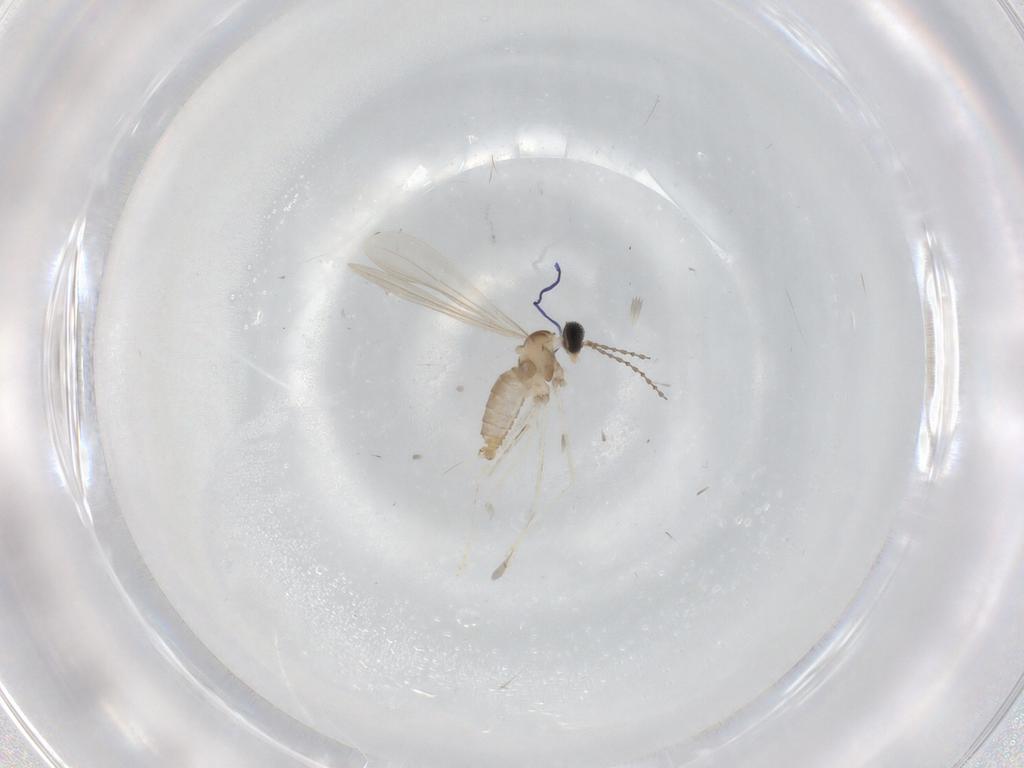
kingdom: Animalia
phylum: Arthropoda
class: Insecta
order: Diptera
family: Cecidomyiidae
